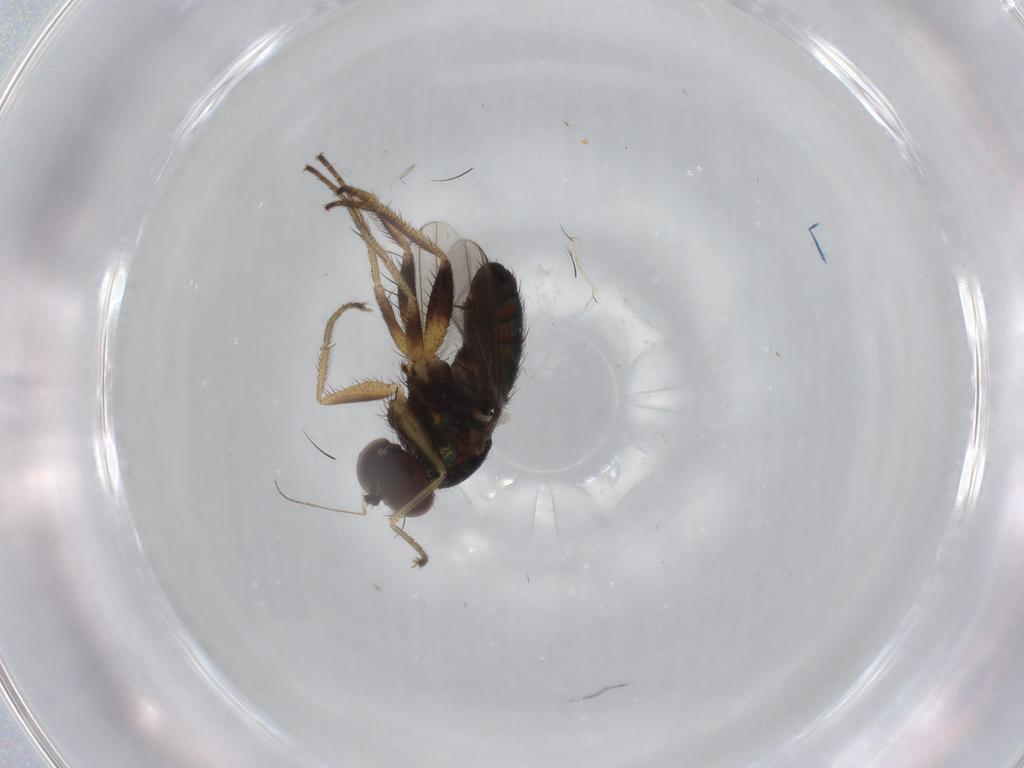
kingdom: Animalia
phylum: Arthropoda
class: Insecta
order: Diptera
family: Dolichopodidae
